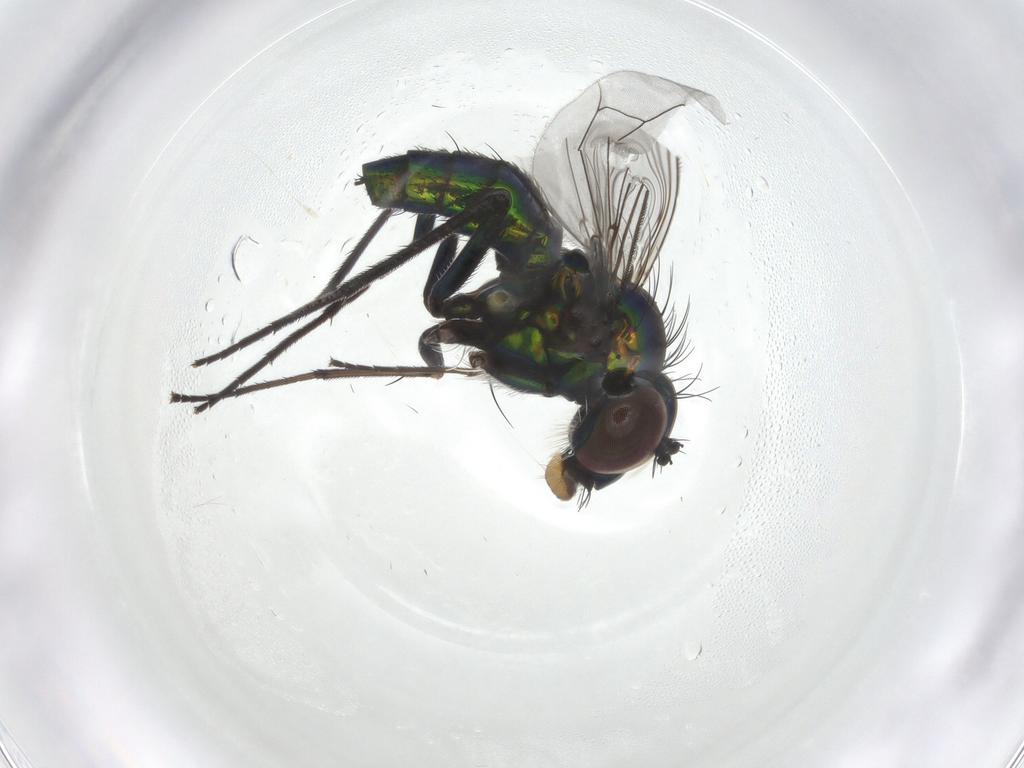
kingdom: Animalia
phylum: Arthropoda
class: Insecta
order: Diptera
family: Dolichopodidae
